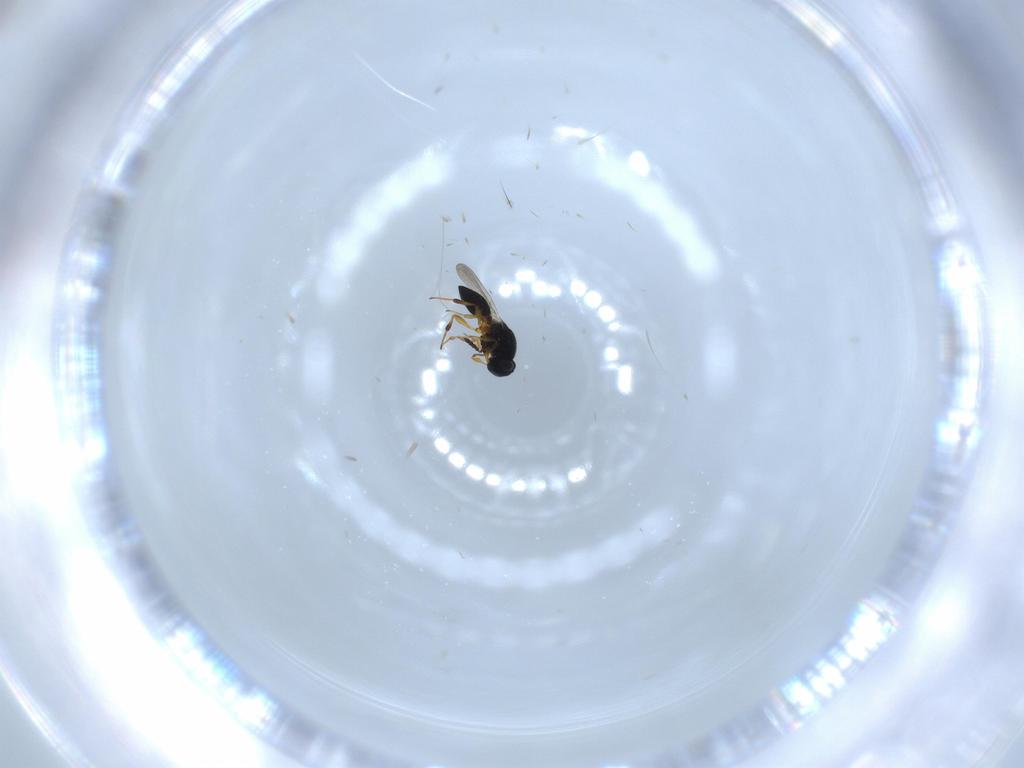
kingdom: Animalia
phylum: Arthropoda
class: Insecta
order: Hymenoptera
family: Platygastridae
